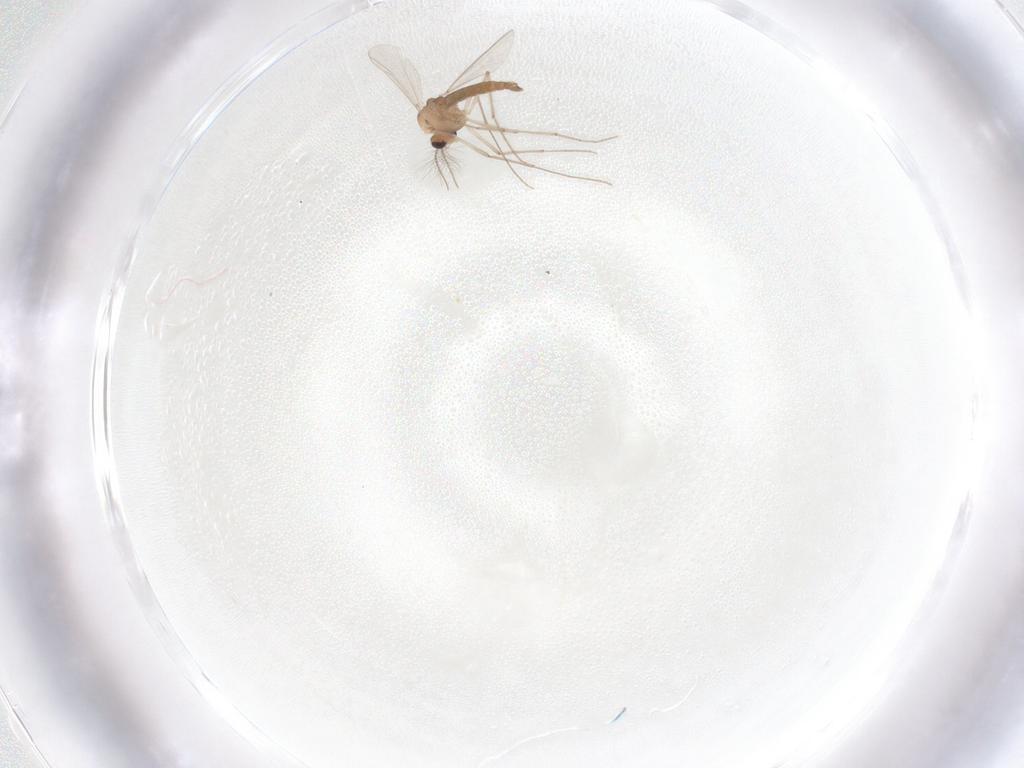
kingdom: Animalia
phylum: Arthropoda
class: Insecta
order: Diptera
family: Chironomidae
